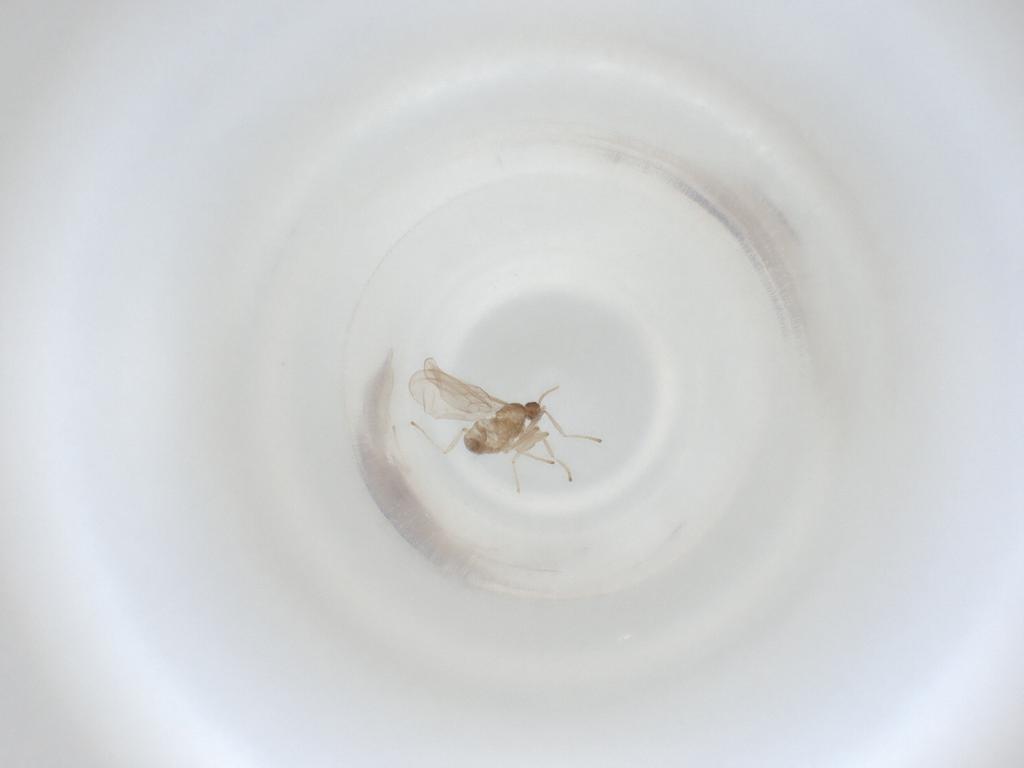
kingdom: Animalia
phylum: Arthropoda
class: Insecta
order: Diptera
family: Cecidomyiidae
